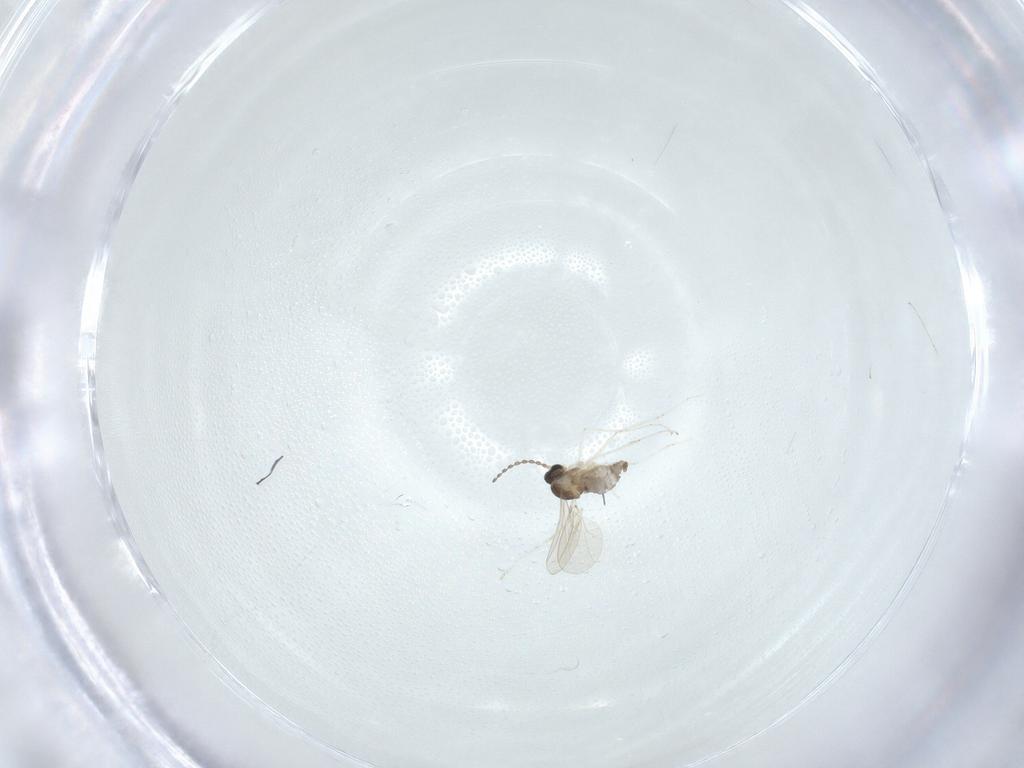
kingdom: Animalia
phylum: Arthropoda
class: Insecta
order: Diptera
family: Cecidomyiidae
